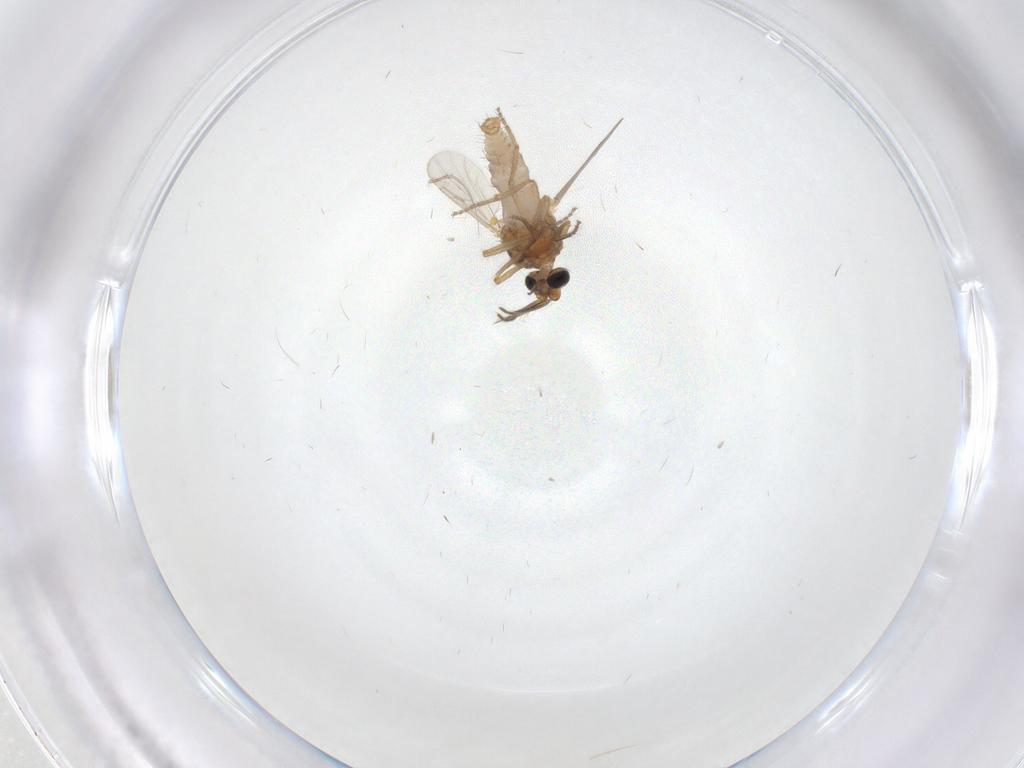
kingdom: Animalia
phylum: Arthropoda
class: Insecta
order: Diptera
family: Ceratopogonidae
